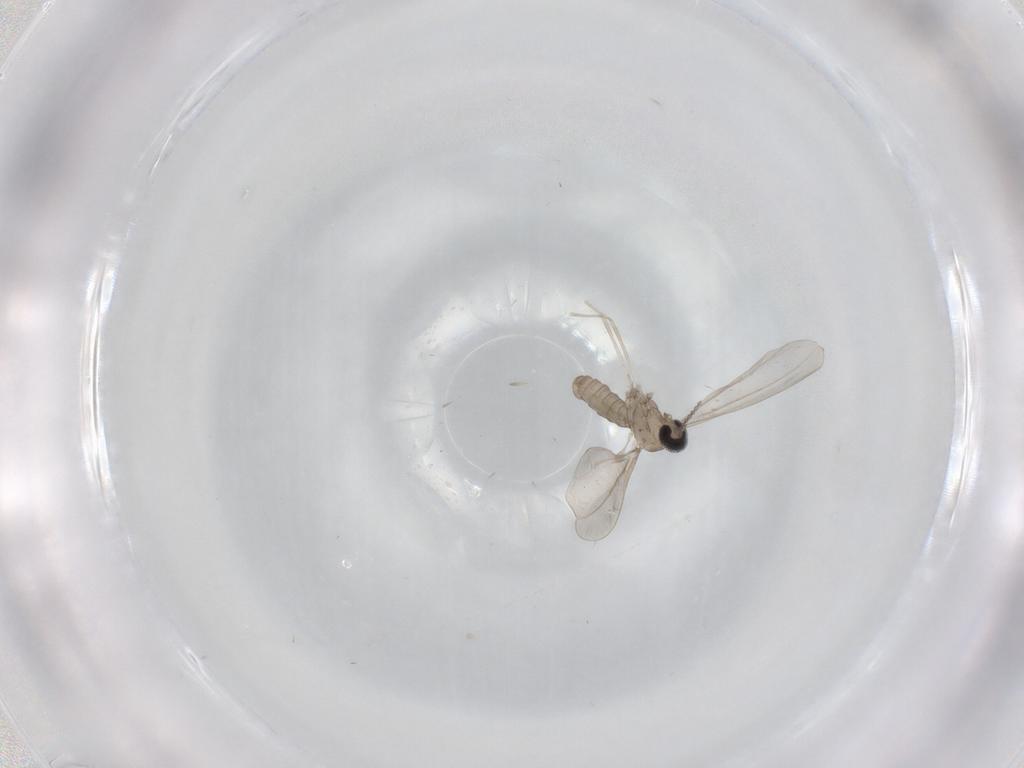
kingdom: Animalia
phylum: Arthropoda
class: Insecta
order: Diptera
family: Cecidomyiidae
